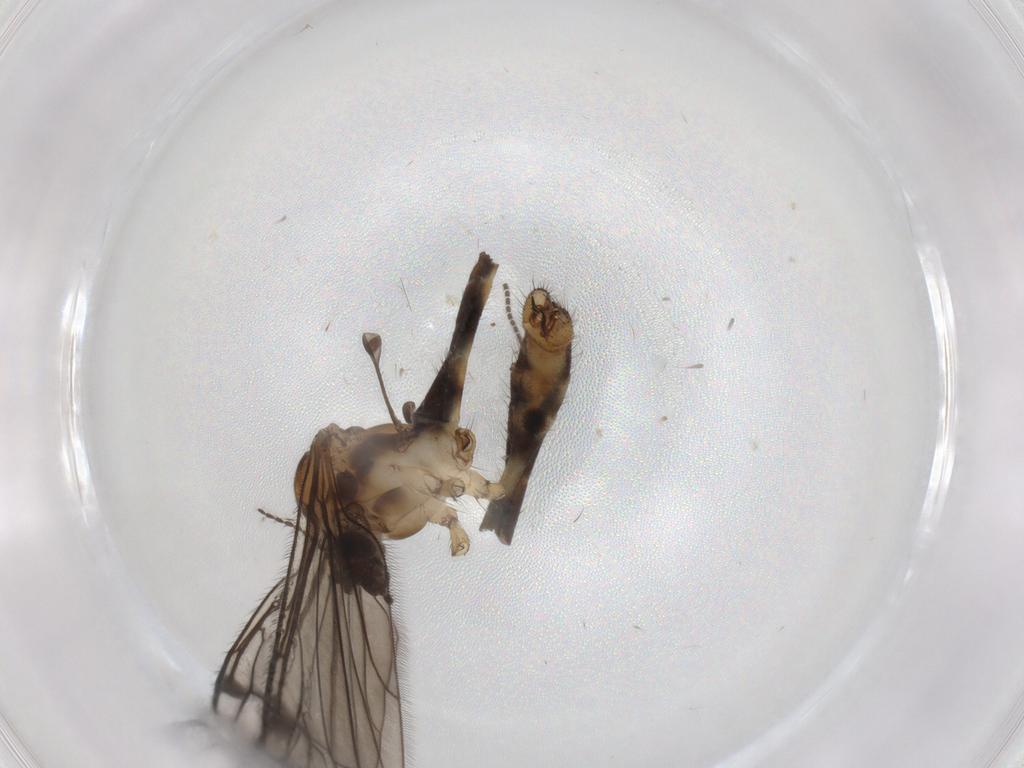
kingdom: Animalia
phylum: Arthropoda
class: Insecta
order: Diptera
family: Limoniidae
